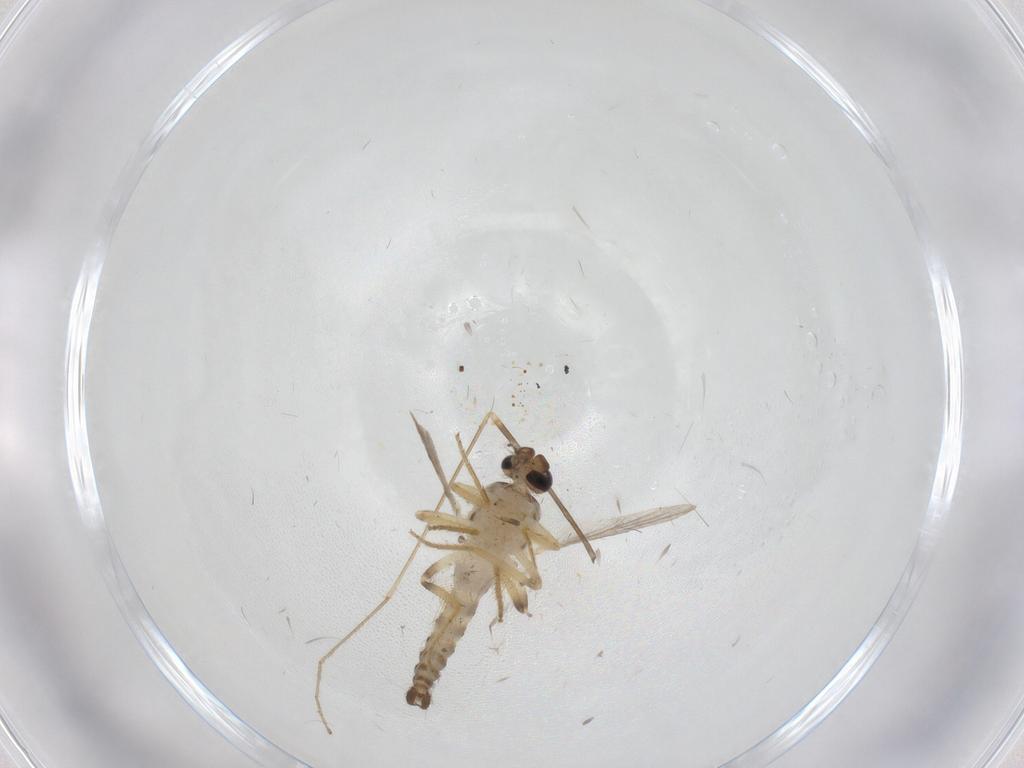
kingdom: Animalia
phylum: Arthropoda
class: Insecta
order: Diptera
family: Ceratopogonidae
